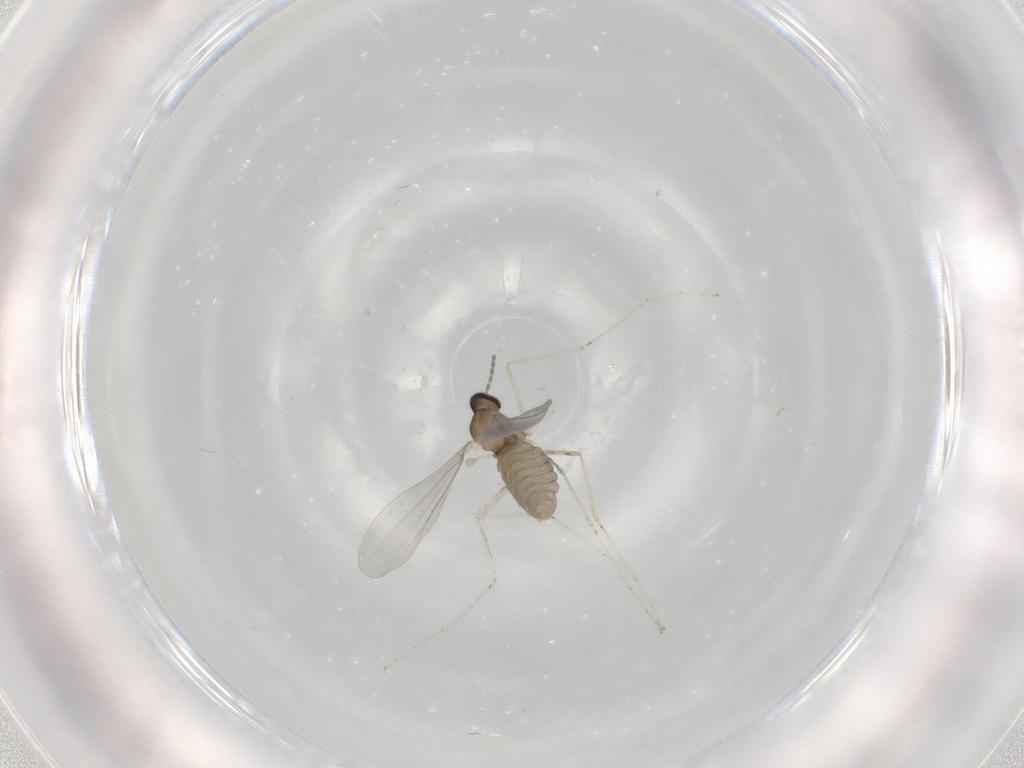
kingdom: Animalia
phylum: Arthropoda
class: Insecta
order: Diptera
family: Cecidomyiidae
